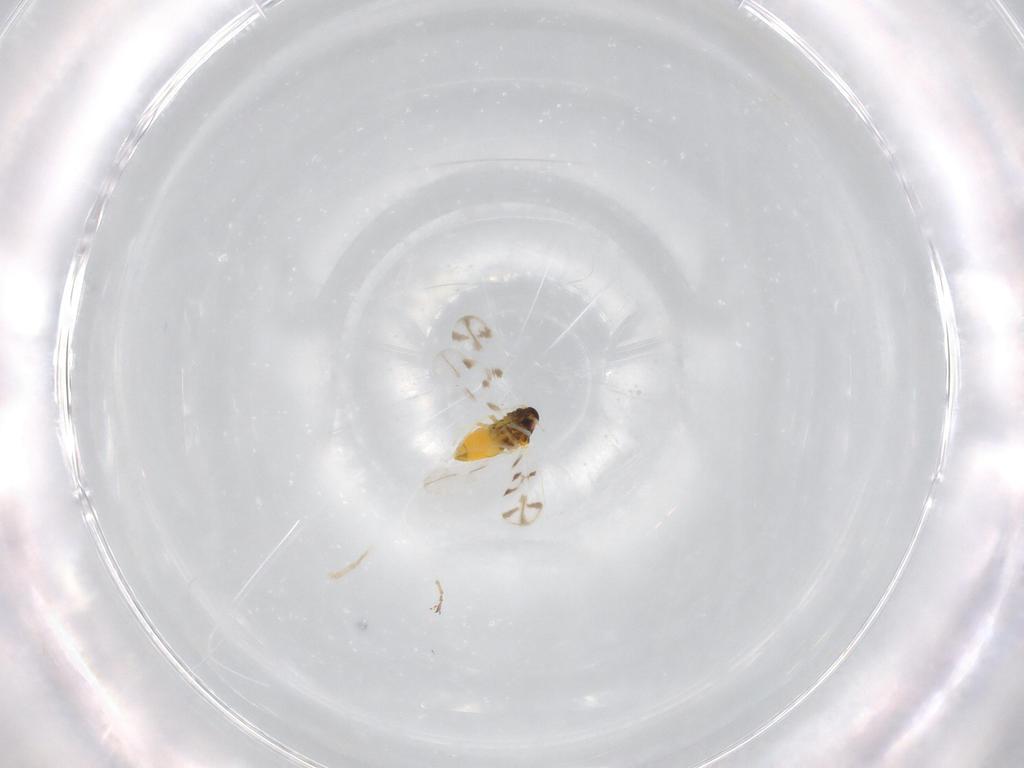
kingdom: Animalia
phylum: Arthropoda
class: Insecta
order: Hemiptera
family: Aleyrodidae
